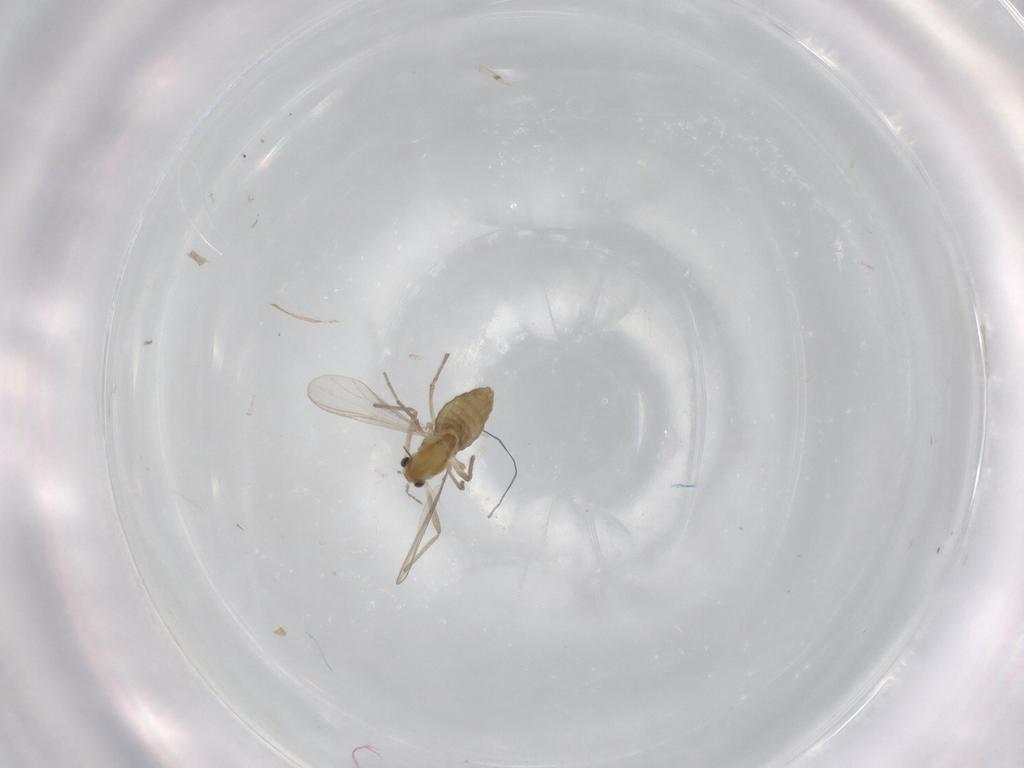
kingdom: Animalia
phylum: Arthropoda
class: Insecta
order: Diptera
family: Chironomidae
